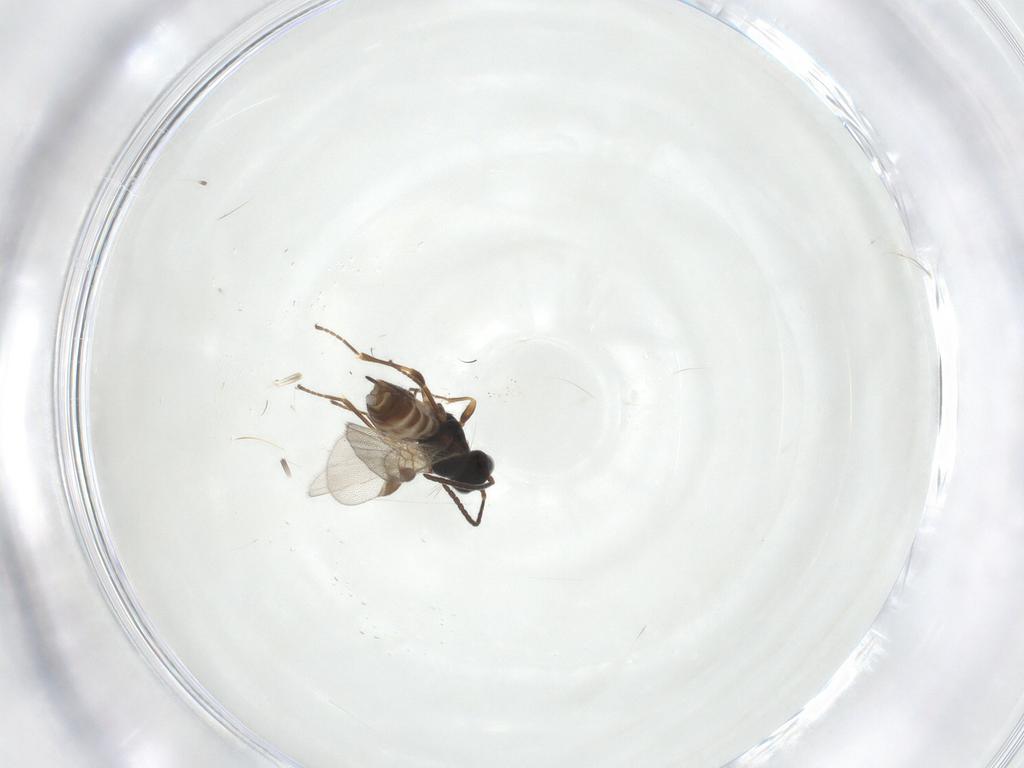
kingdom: Animalia
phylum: Arthropoda
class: Insecta
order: Hymenoptera
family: Braconidae
